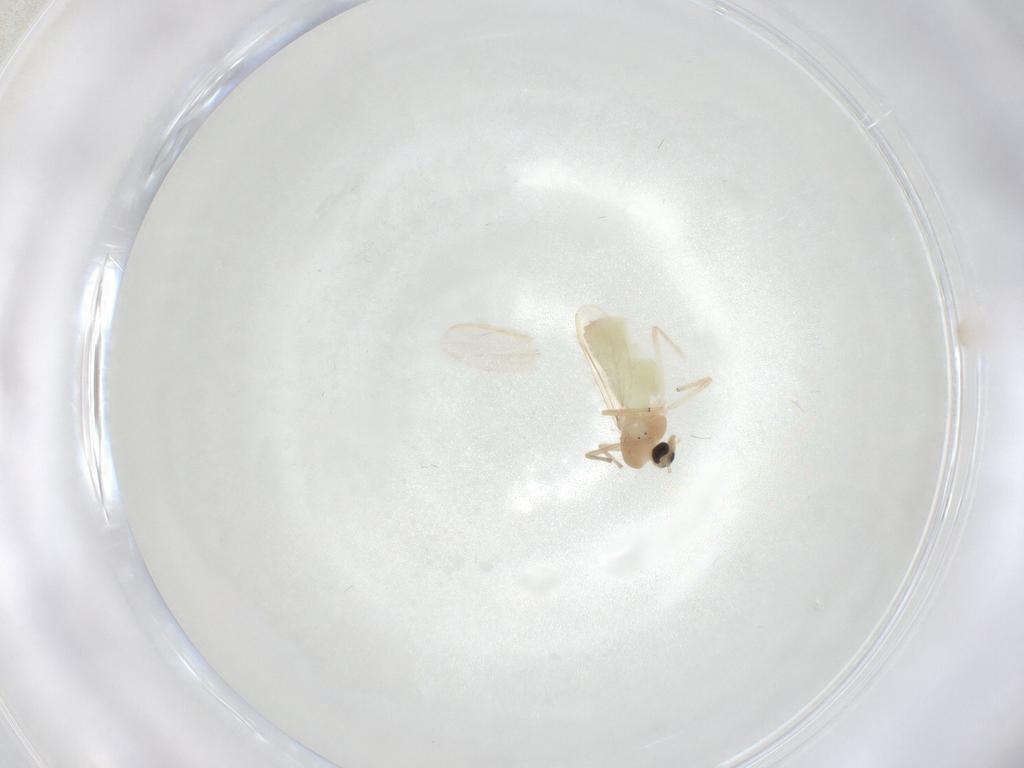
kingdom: Animalia
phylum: Arthropoda
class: Insecta
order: Diptera
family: Chironomidae
